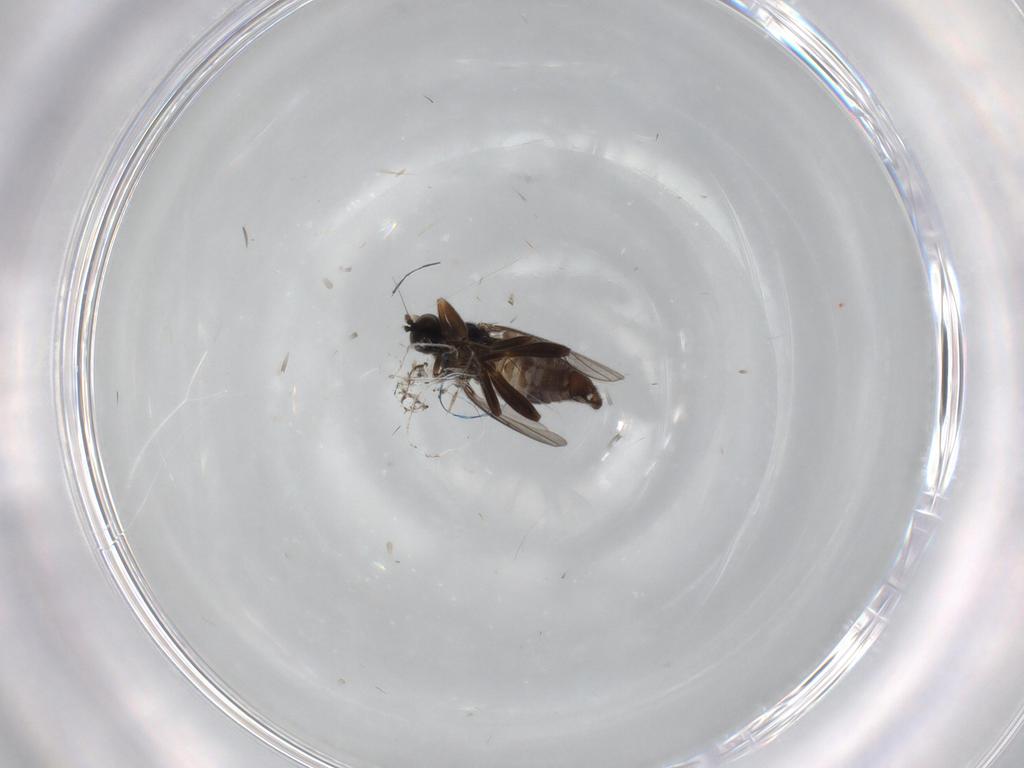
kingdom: Animalia
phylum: Arthropoda
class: Insecta
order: Diptera
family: Hybotidae
